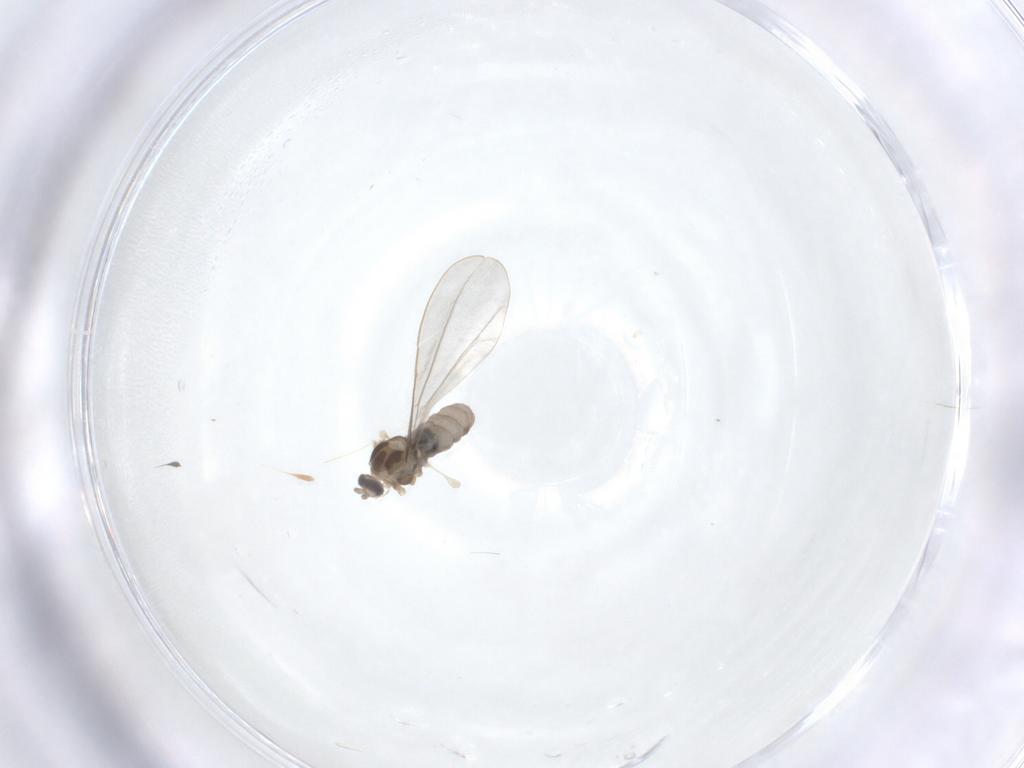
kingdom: Animalia
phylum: Arthropoda
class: Insecta
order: Diptera
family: Cecidomyiidae
